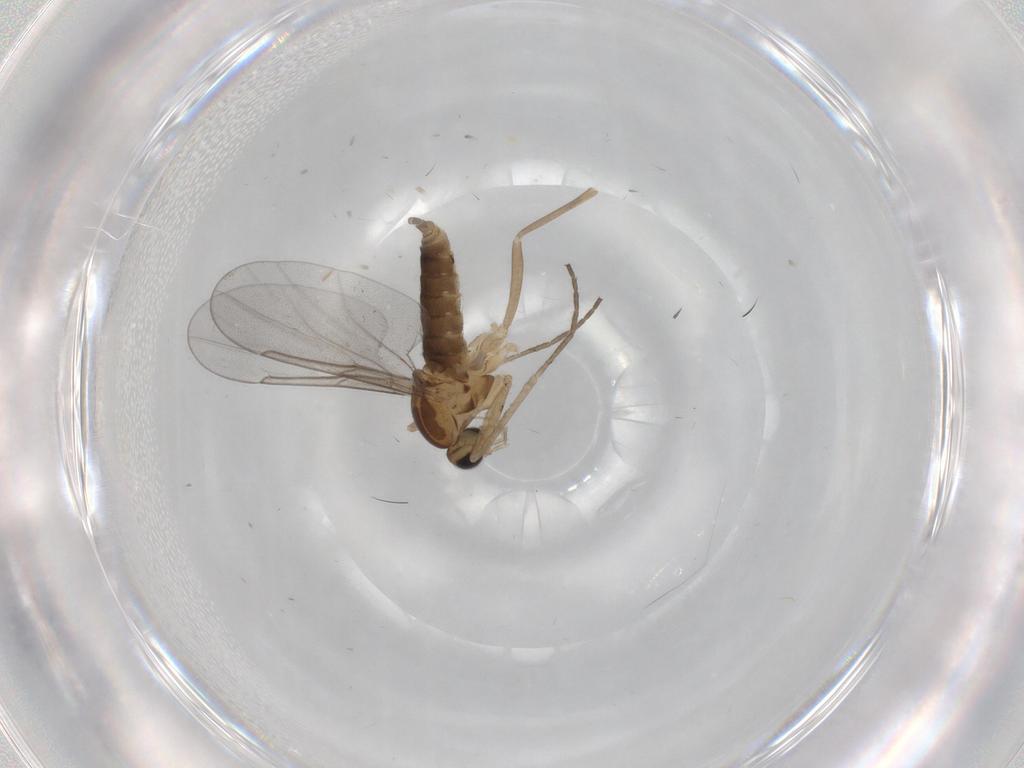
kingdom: Animalia
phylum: Arthropoda
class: Insecta
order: Diptera
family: Cecidomyiidae
